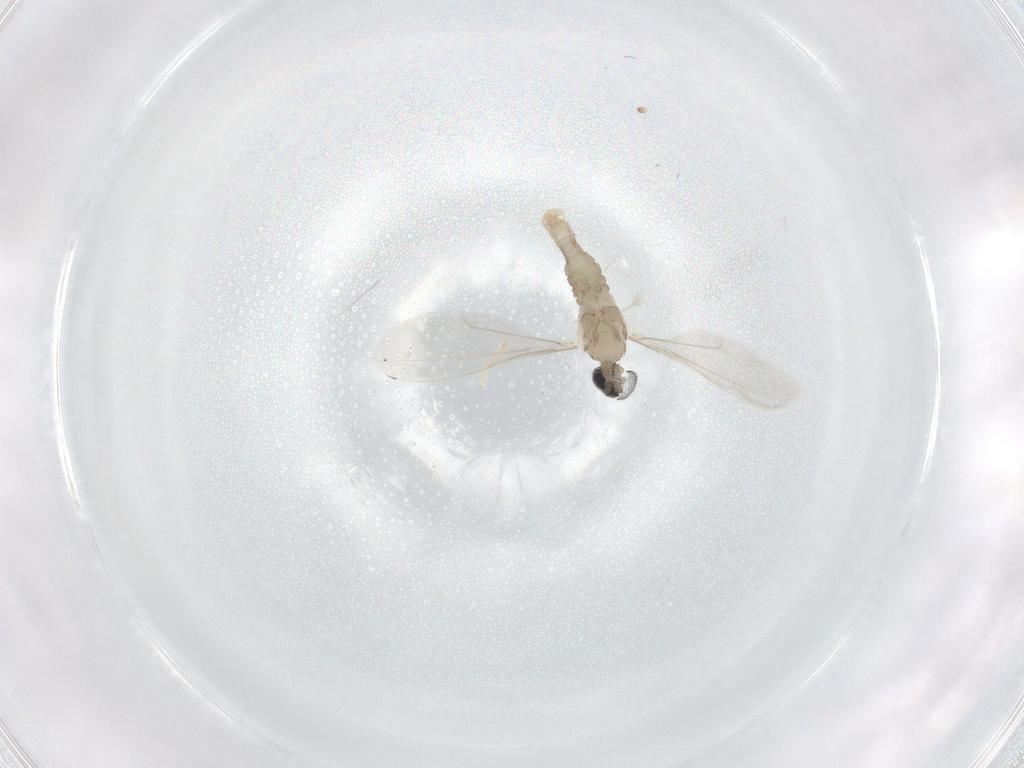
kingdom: Animalia
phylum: Arthropoda
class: Insecta
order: Diptera
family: Cecidomyiidae
